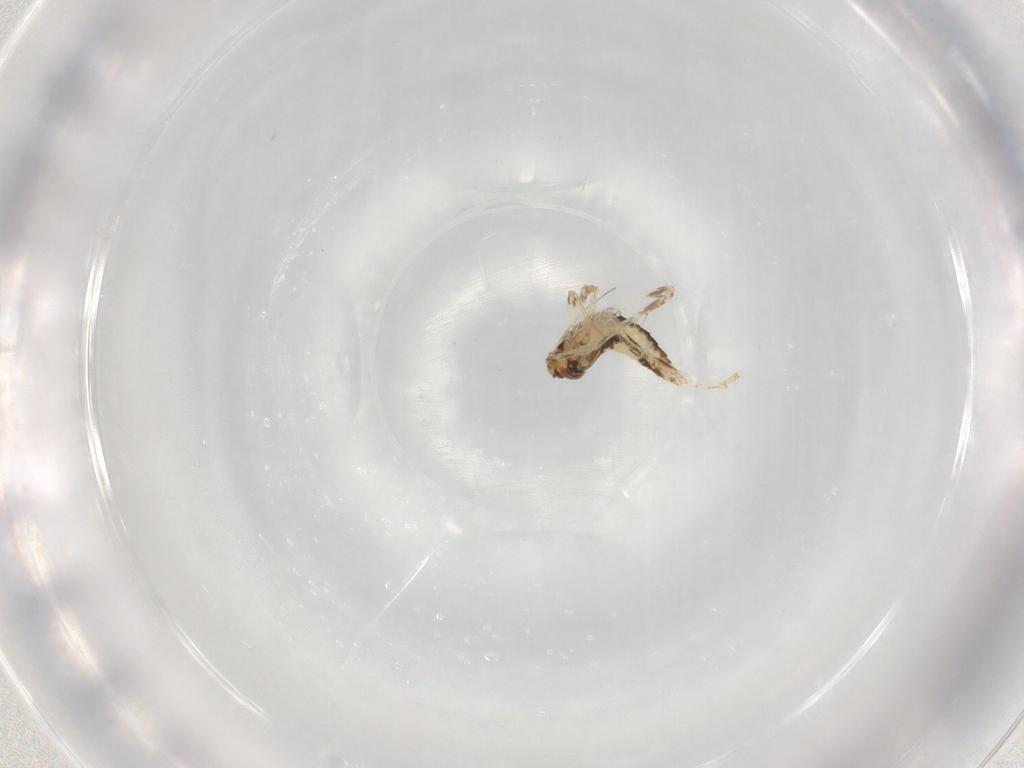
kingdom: Animalia
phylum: Arthropoda
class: Insecta
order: Hemiptera
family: Cicadellidae
